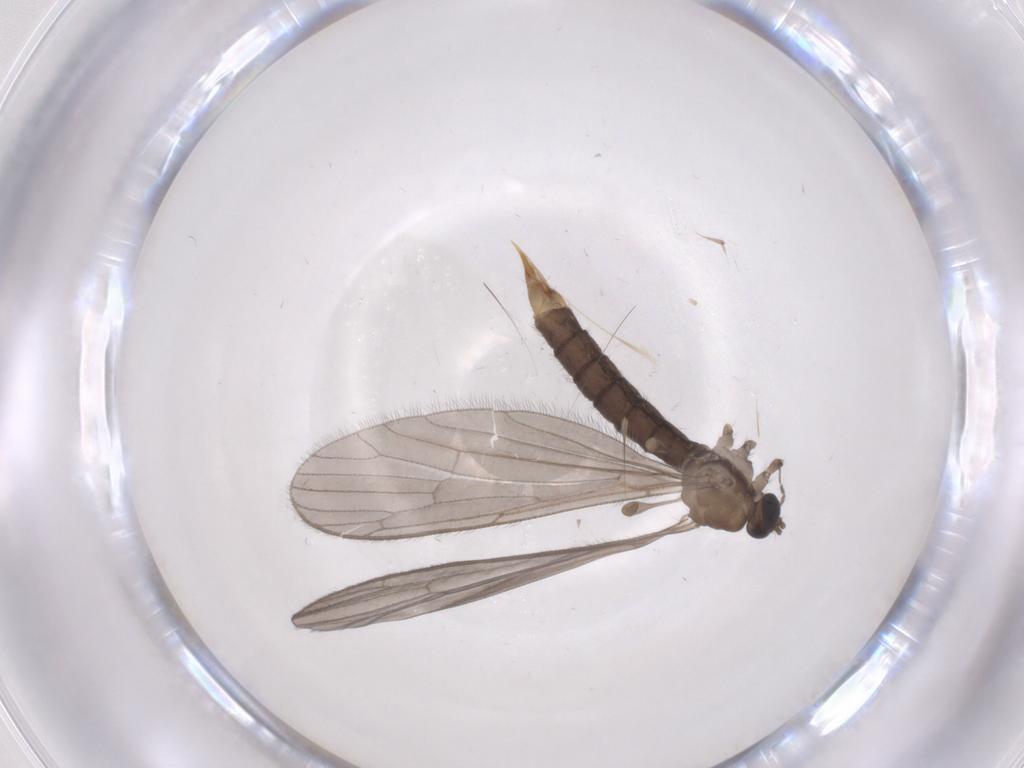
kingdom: Animalia
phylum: Arthropoda
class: Insecta
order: Diptera
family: Limoniidae
